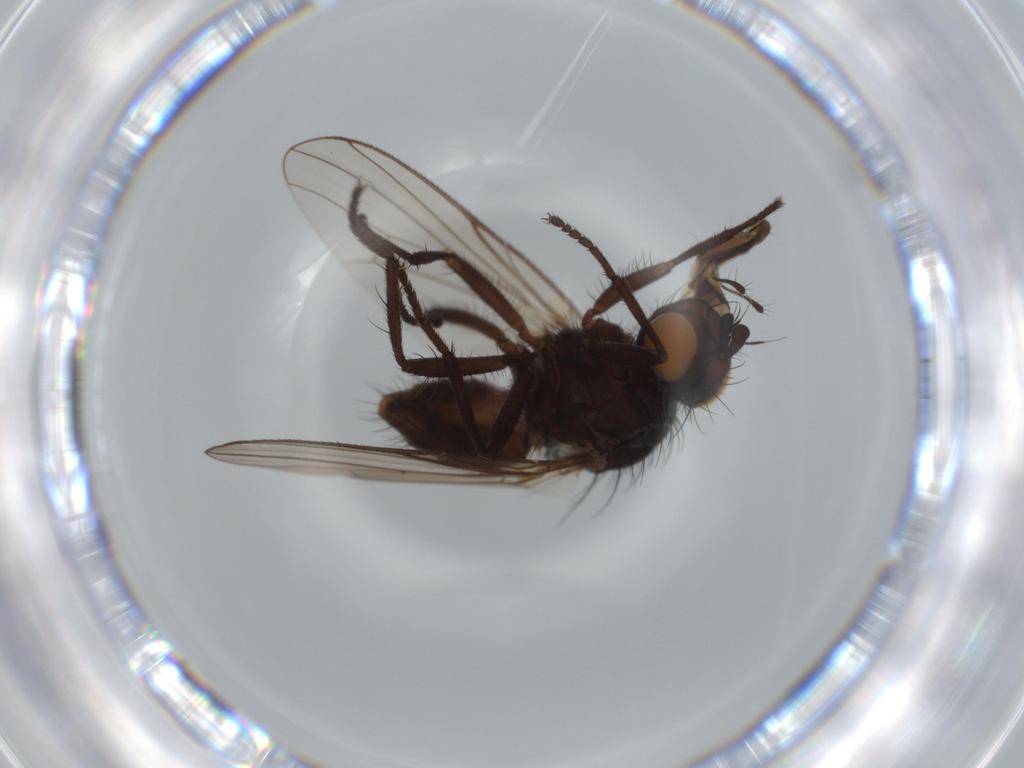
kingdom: Animalia
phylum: Arthropoda
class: Insecta
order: Diptera
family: Anthomyiidae
